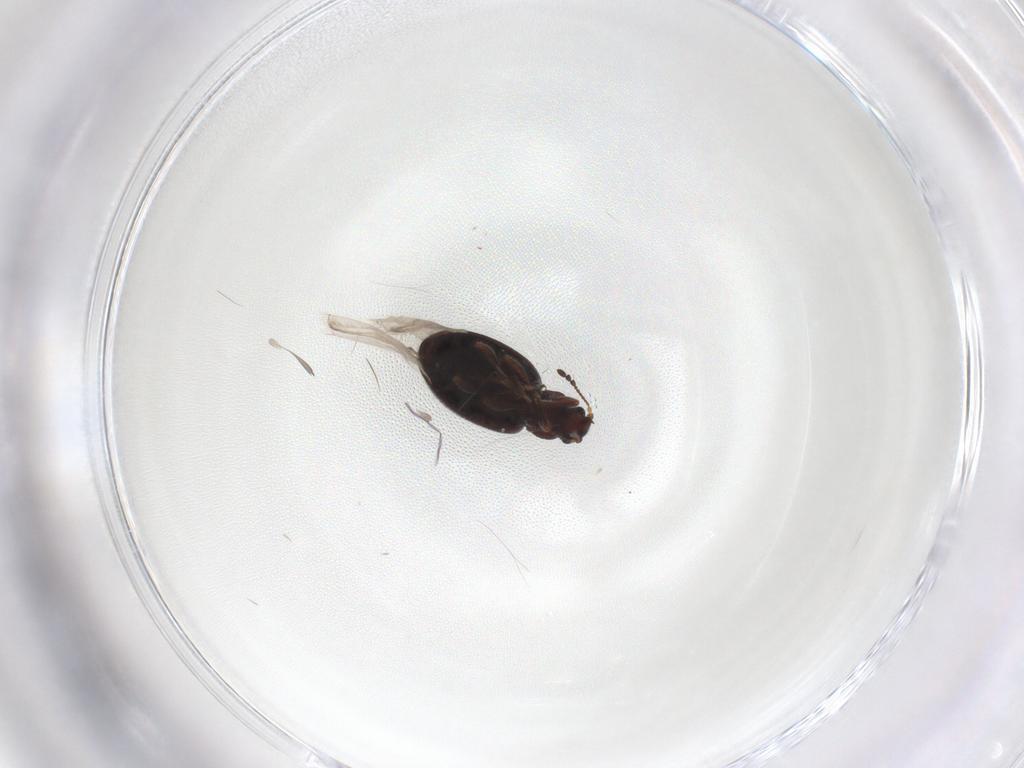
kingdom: Animalia
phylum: Arthropoda
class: Insecta
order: Coleoptera
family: Latridiidae
